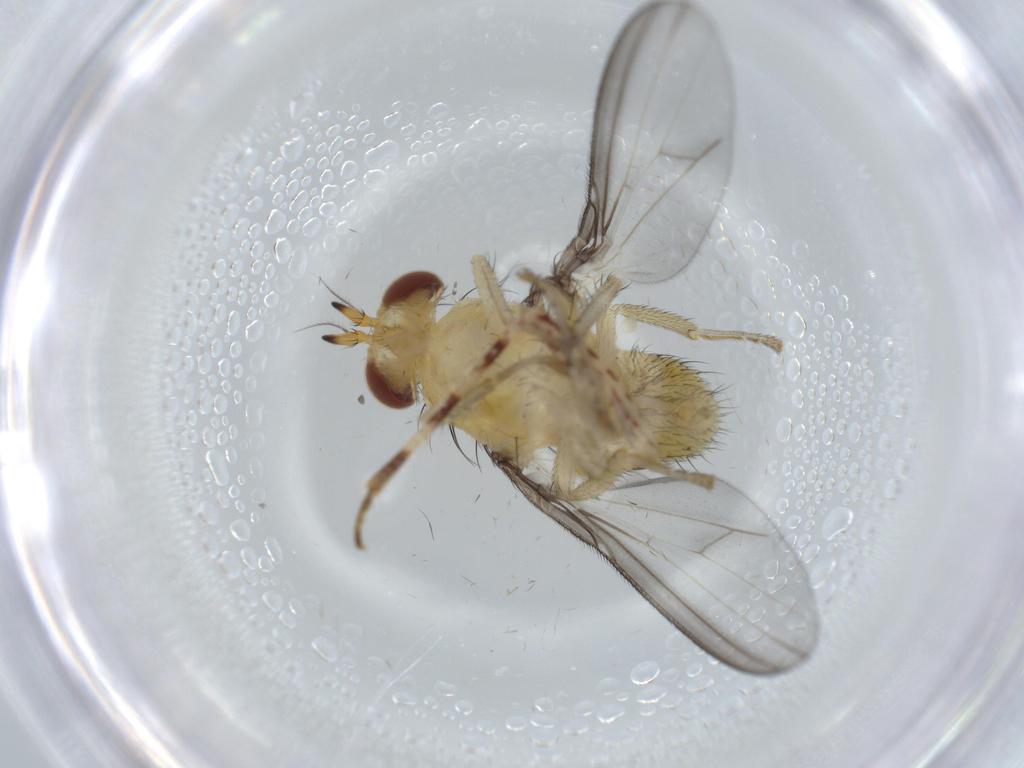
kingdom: Animalia
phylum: Arthropoda
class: Insecta
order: Diptera
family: Lauxaniidae
